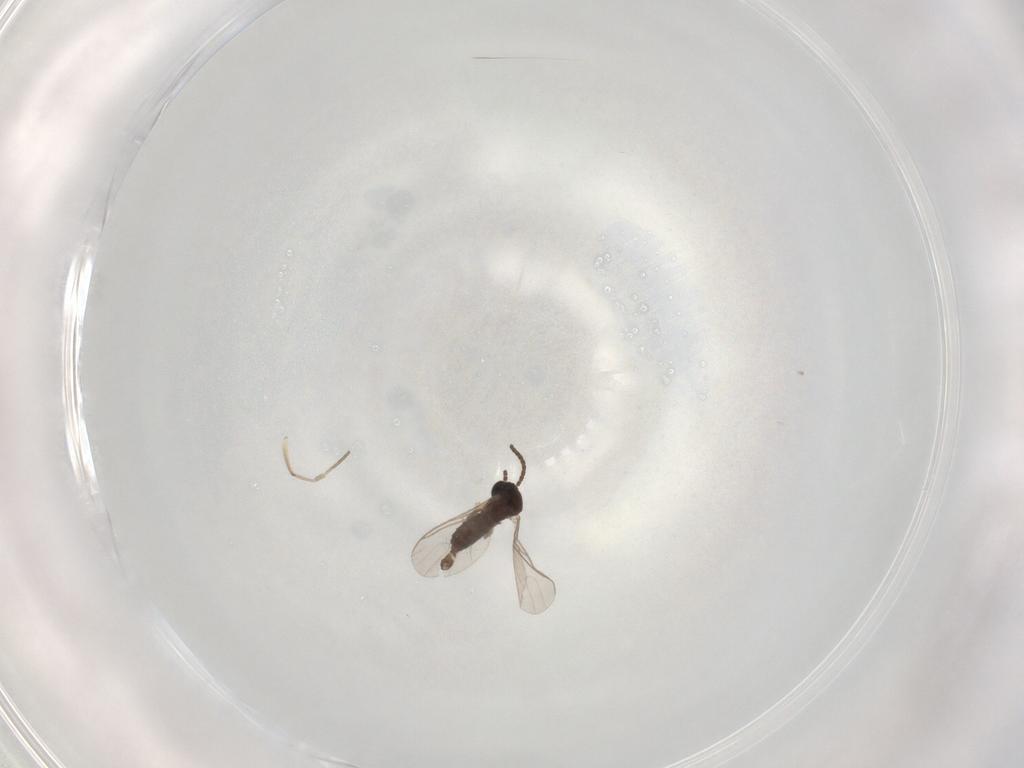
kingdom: Animalia
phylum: Arthropoda
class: Insecta
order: Diptera
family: Sciaridae
